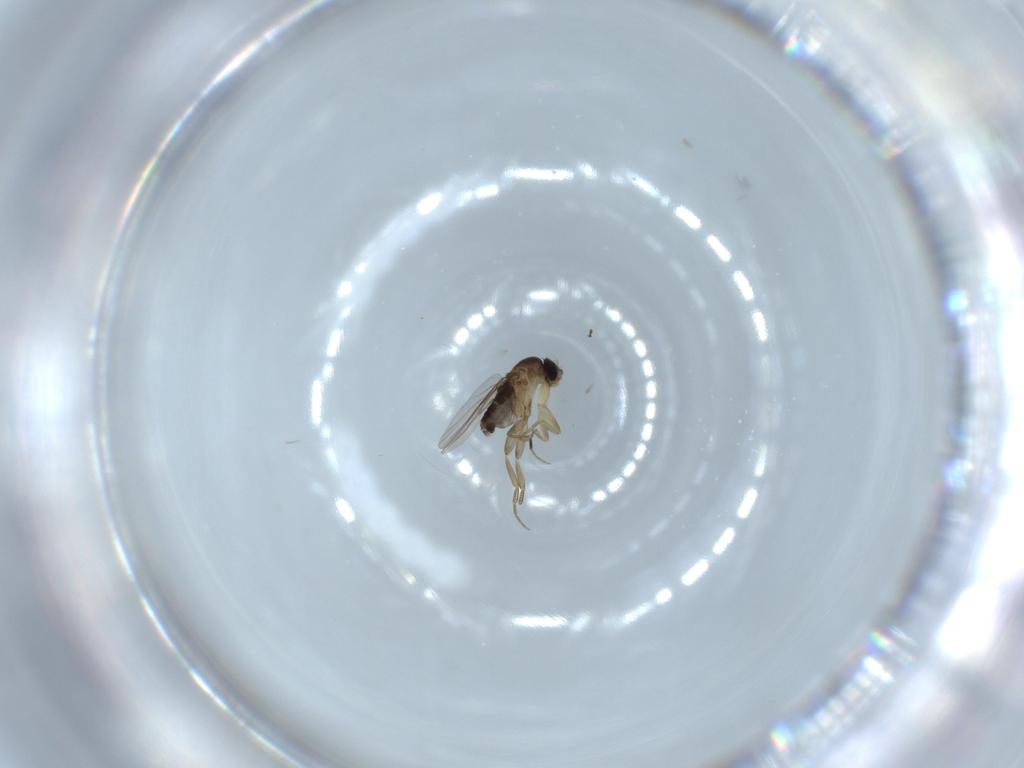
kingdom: Animalia
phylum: Arthropoda
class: Insecta
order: Diptera
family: Phoridae
